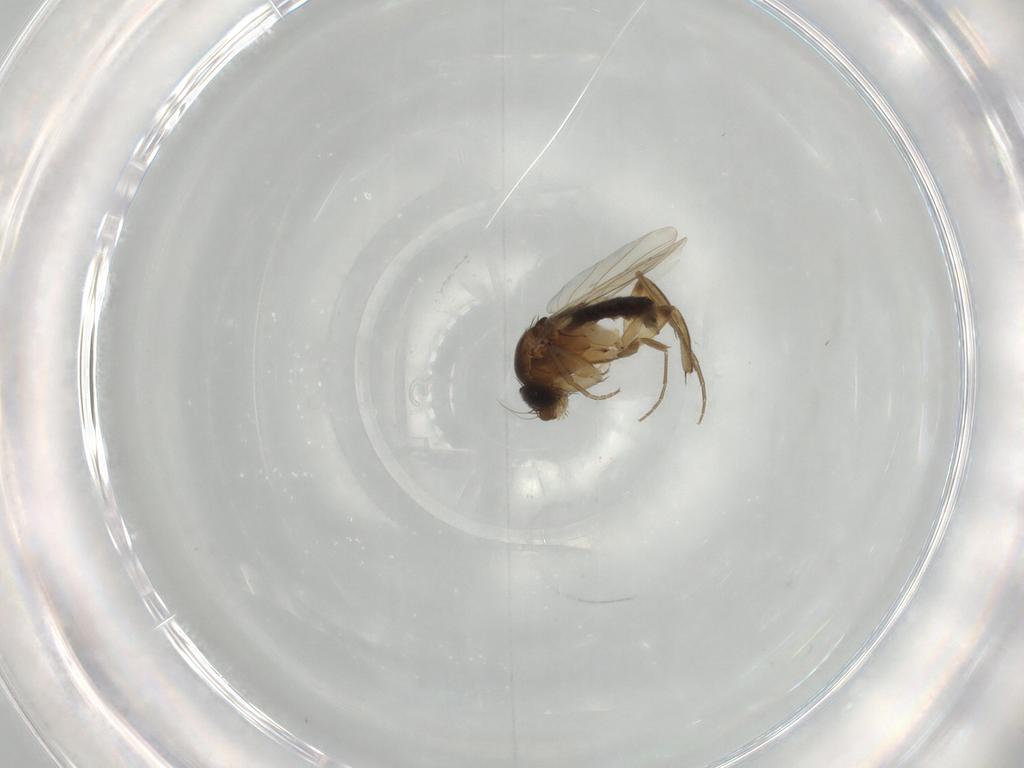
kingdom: Animalia
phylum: Arthropoda
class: Insecta
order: Diptera
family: Phoridae
